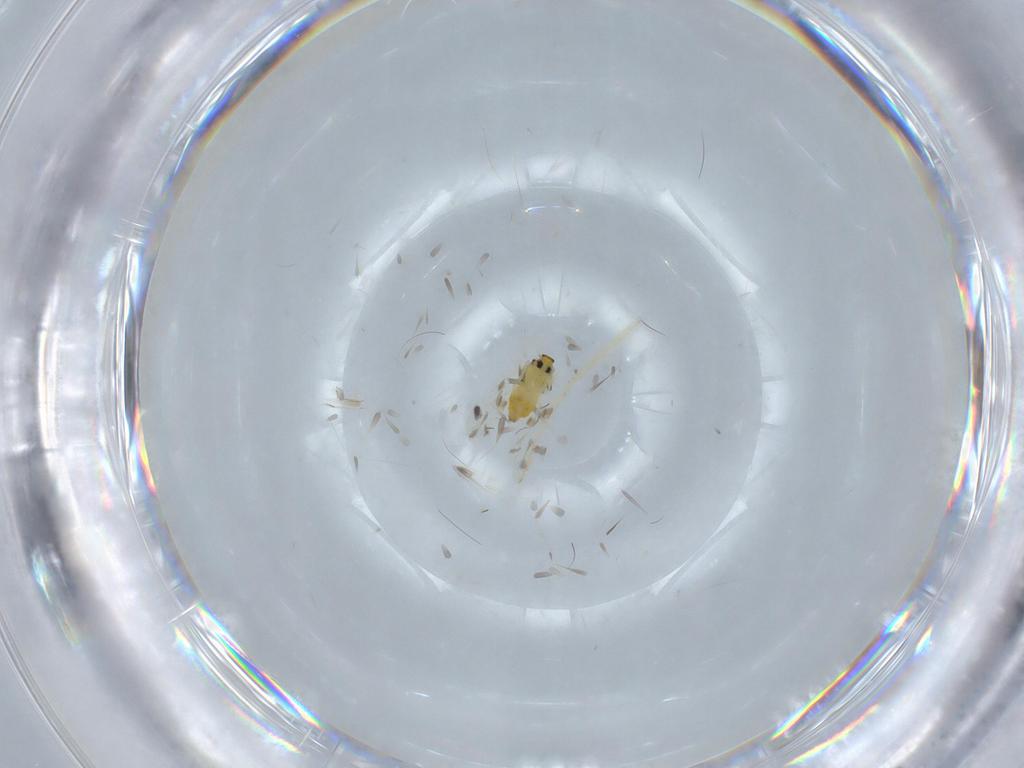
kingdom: Animalia
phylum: Arthropoda
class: Insecta
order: Hemiptera
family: Aleyrodidae
